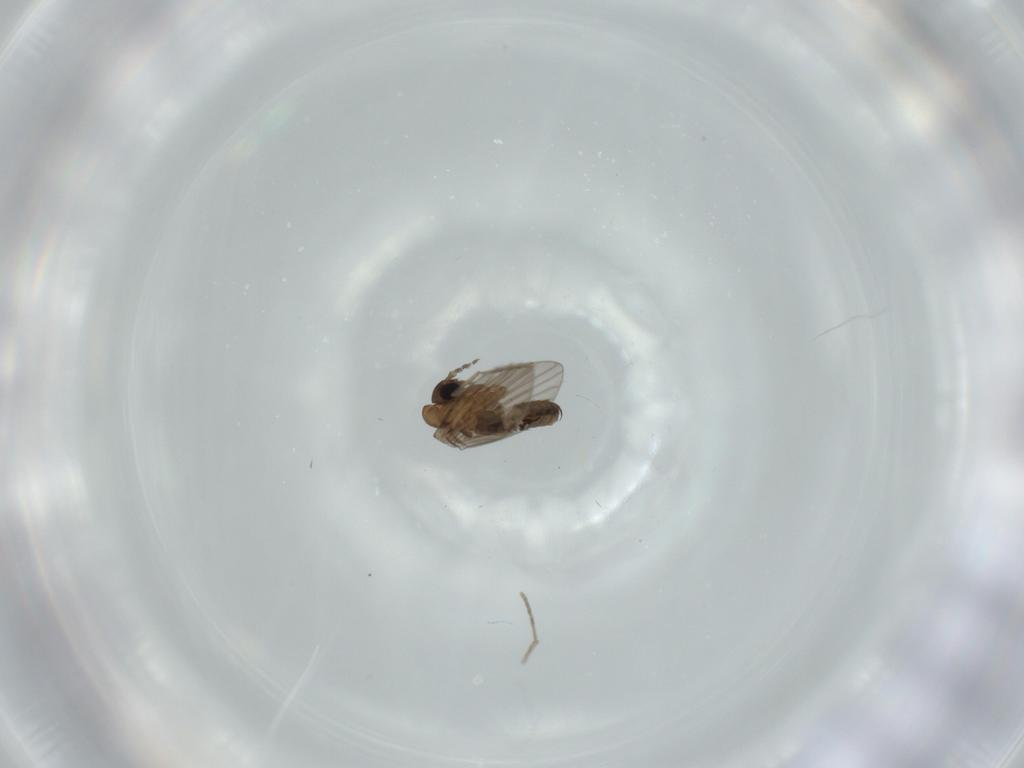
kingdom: Animalia
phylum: Arthropoda
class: Insecta
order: Diptera
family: Psychodidae
